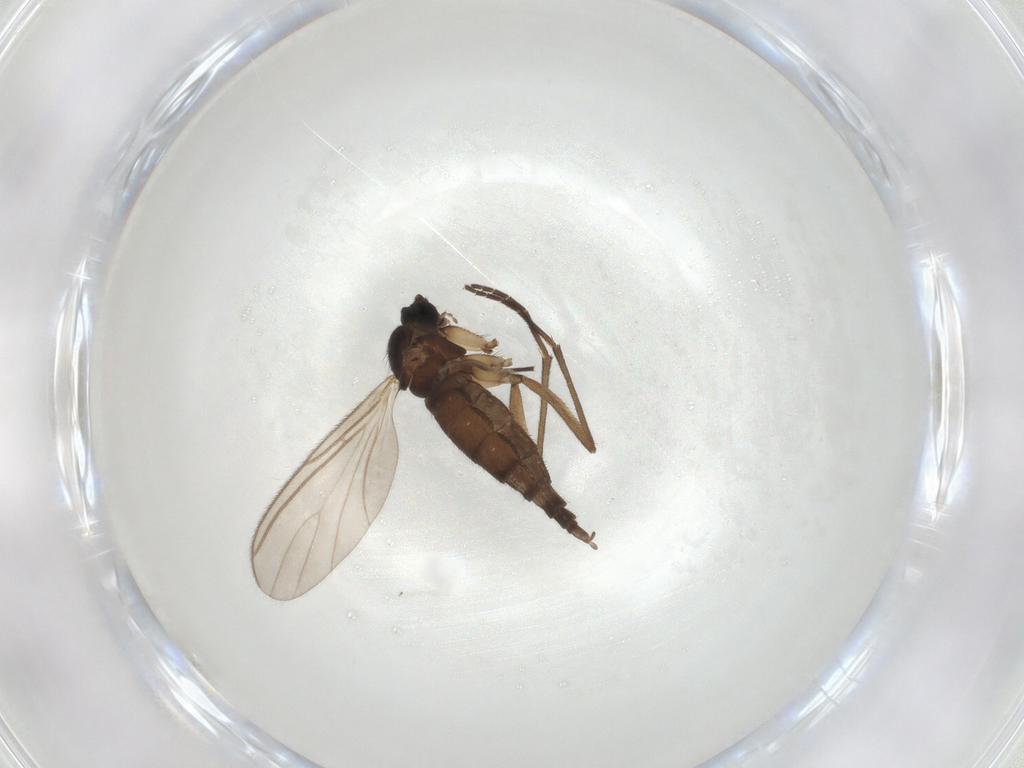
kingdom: Animalia
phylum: Arthropoda
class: Insecta
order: Diptera
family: Sciaridae
